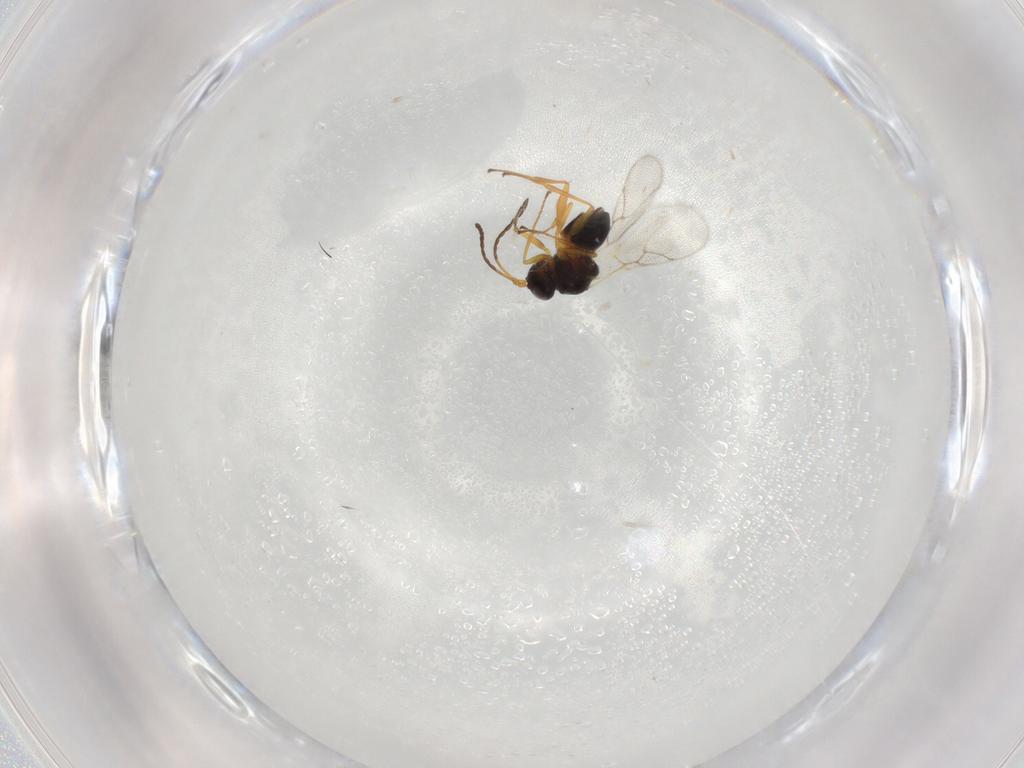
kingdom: Animalia
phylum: Arthropoda
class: Insecta
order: Hymenoptera
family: Figitidae
